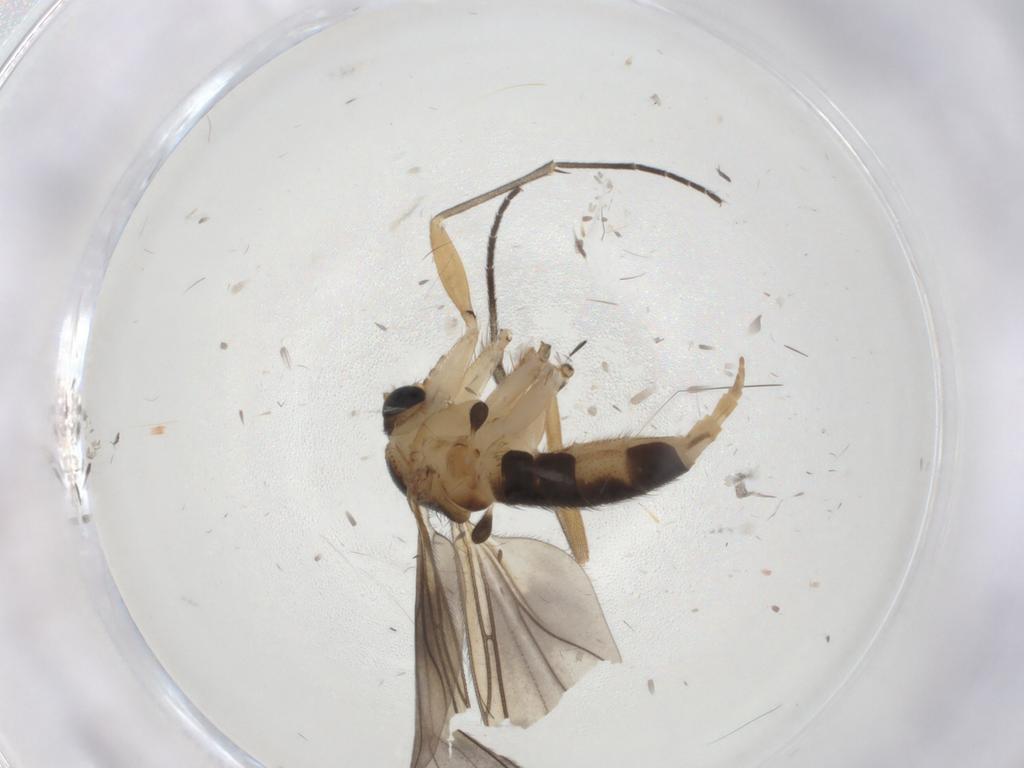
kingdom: Animalia
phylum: Arthropoda
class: Insecta
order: Diptera
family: Sciaridae
